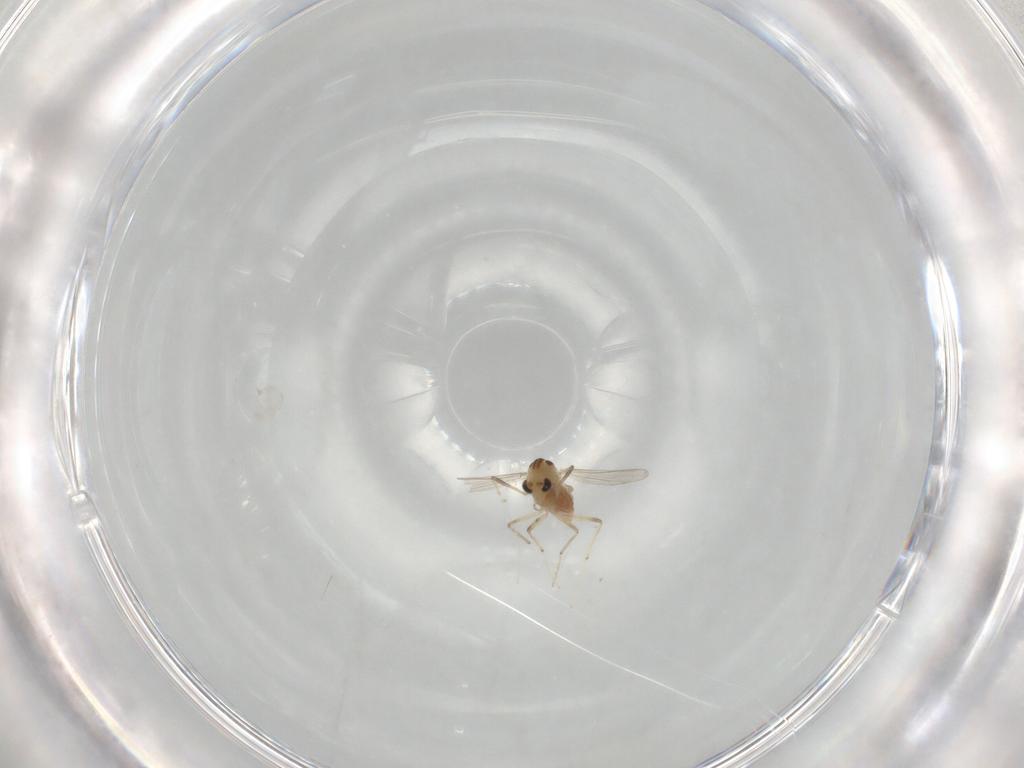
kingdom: Animalia
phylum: Arthropoda
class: Insecta
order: Diptera
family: Chironomidae
